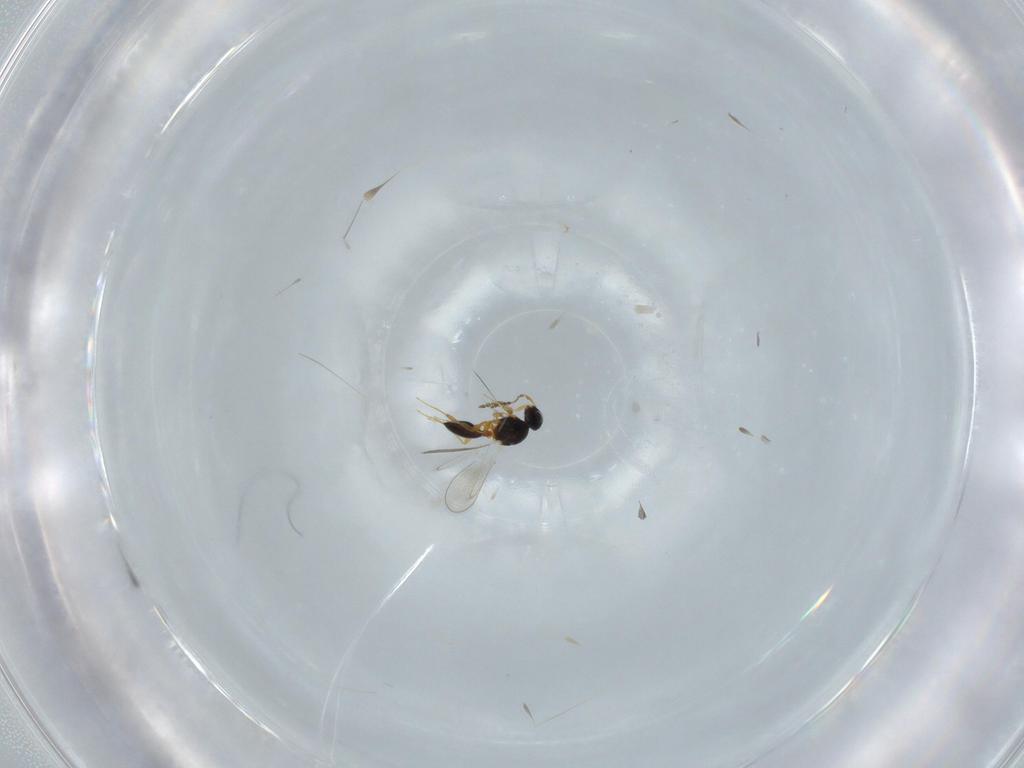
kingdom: Animalia
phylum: Arthropoda
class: Insecta
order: Hymenoptera
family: Platygastridae
